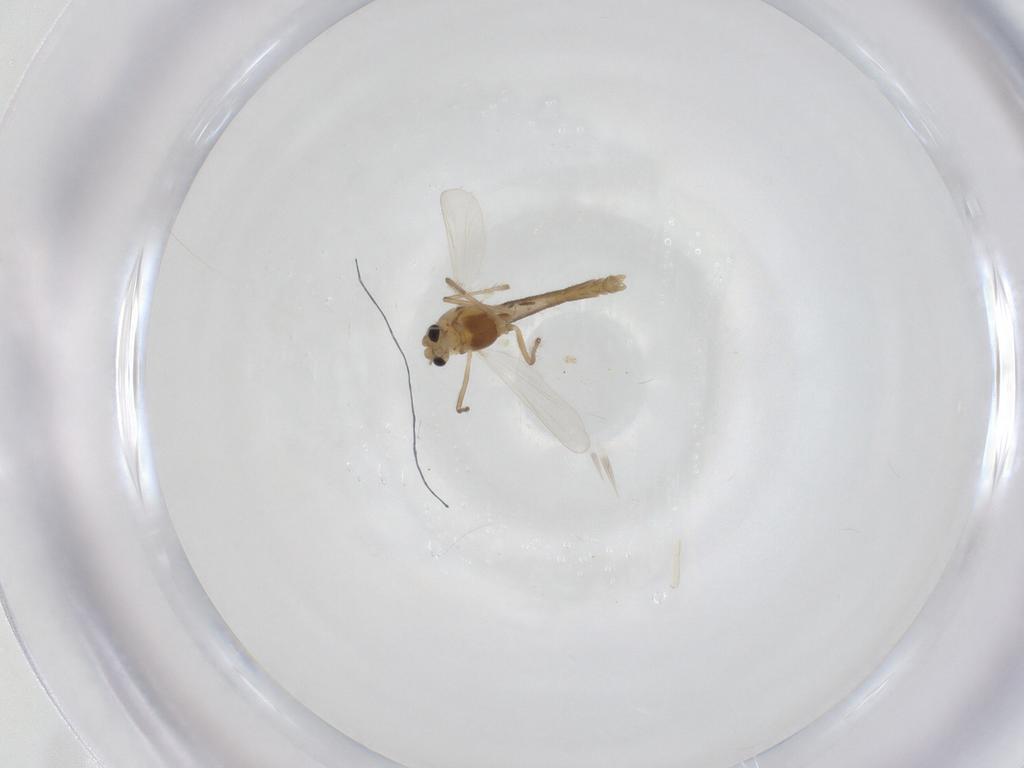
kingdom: Animalia
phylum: Arthropoda
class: Insecta
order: Diptera
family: Chironomidae
